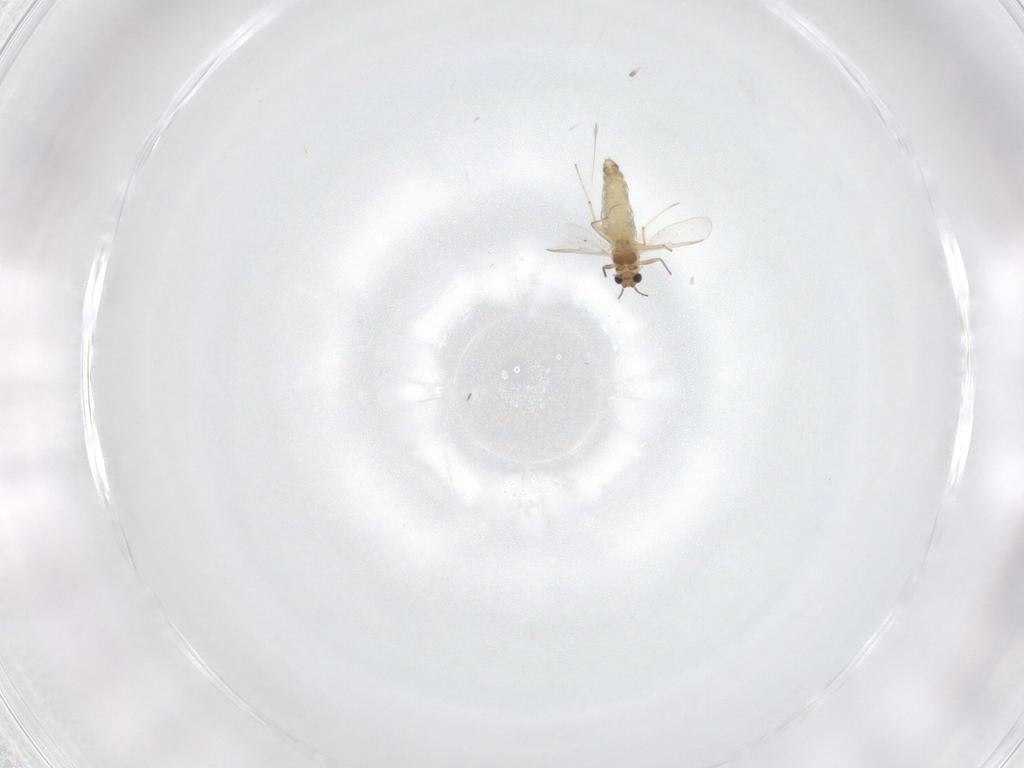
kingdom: Animalia
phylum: Arthropoda
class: Insecta
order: Diptera
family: Chironomidae
